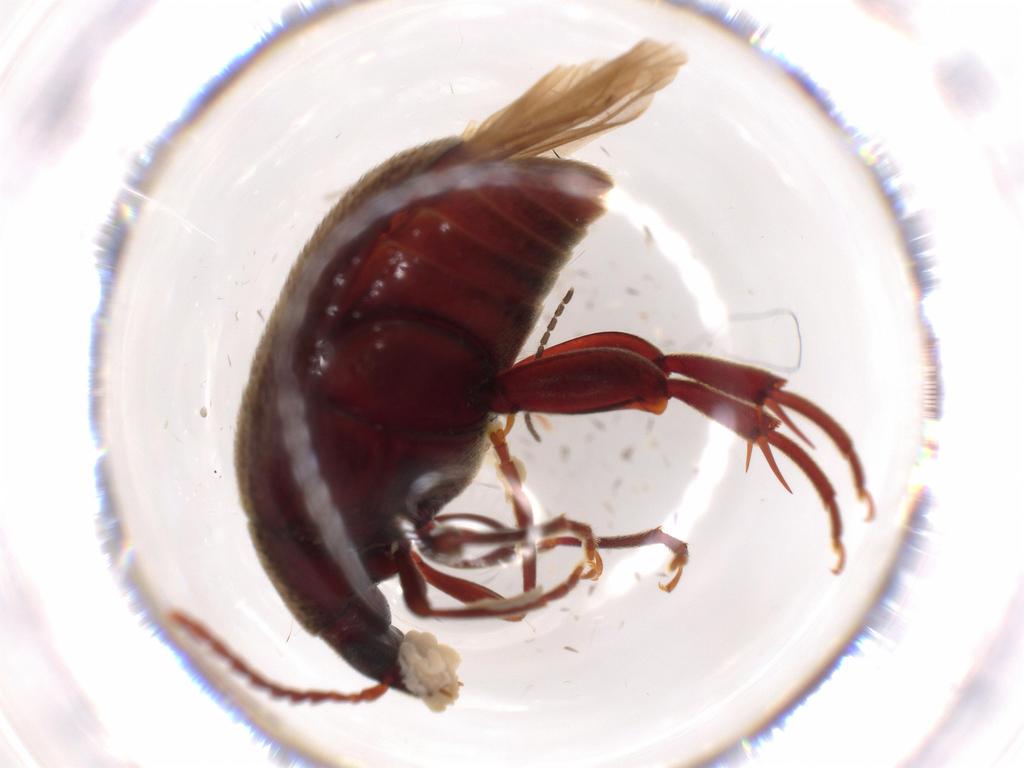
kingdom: Animalia
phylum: Arthropoda
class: Insecta
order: Coleoptera
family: Chrysomelidae
